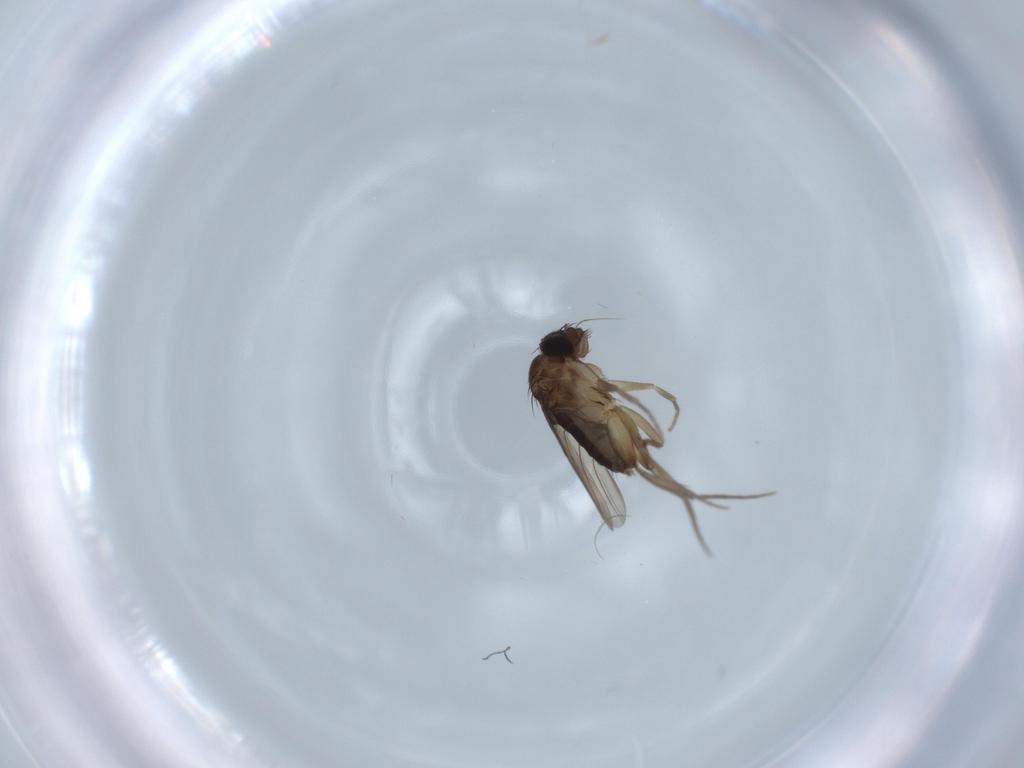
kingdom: Animalia
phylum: Arthropoda
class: Insecta
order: Diptera
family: Phoridae
